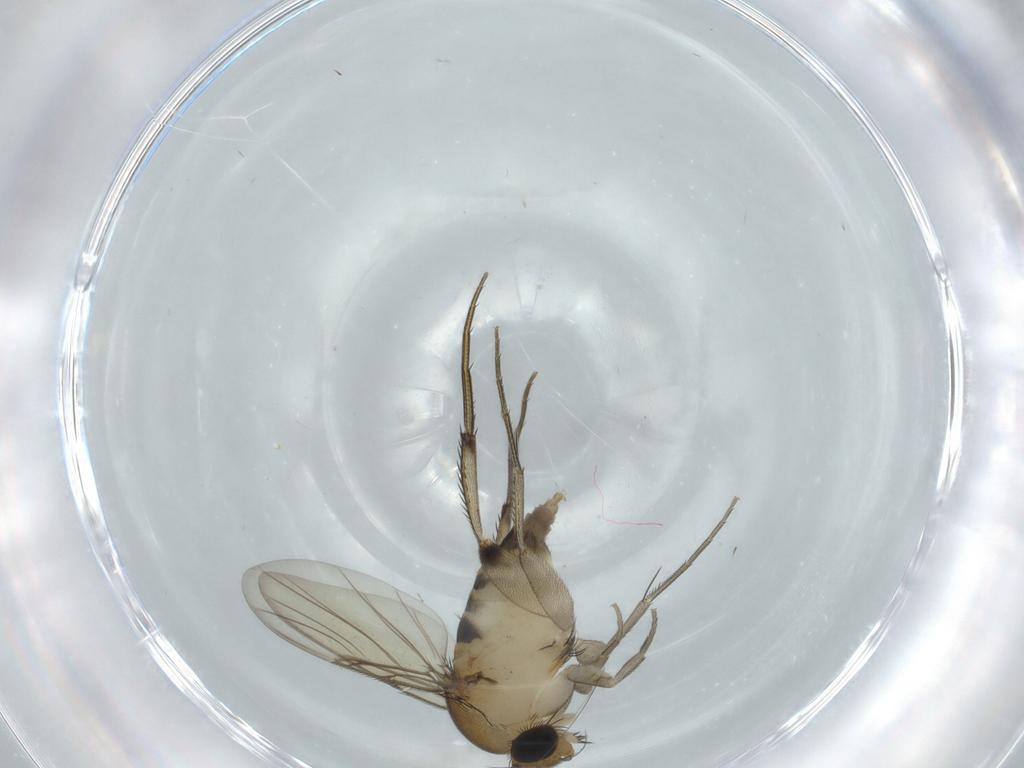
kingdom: Animalia
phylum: Arthropoda
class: Insecta
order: Diptera
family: Phoridae
